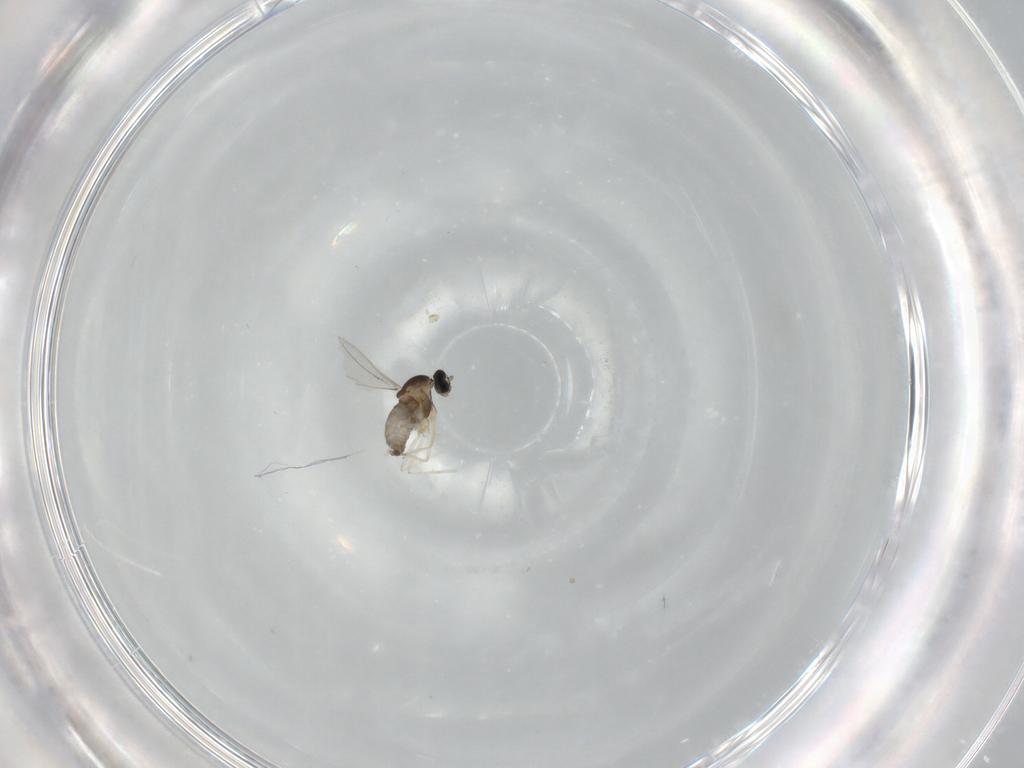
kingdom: Animalia
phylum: Arthropoda
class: Insecta
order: Diptera
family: Cecidomyiidae
